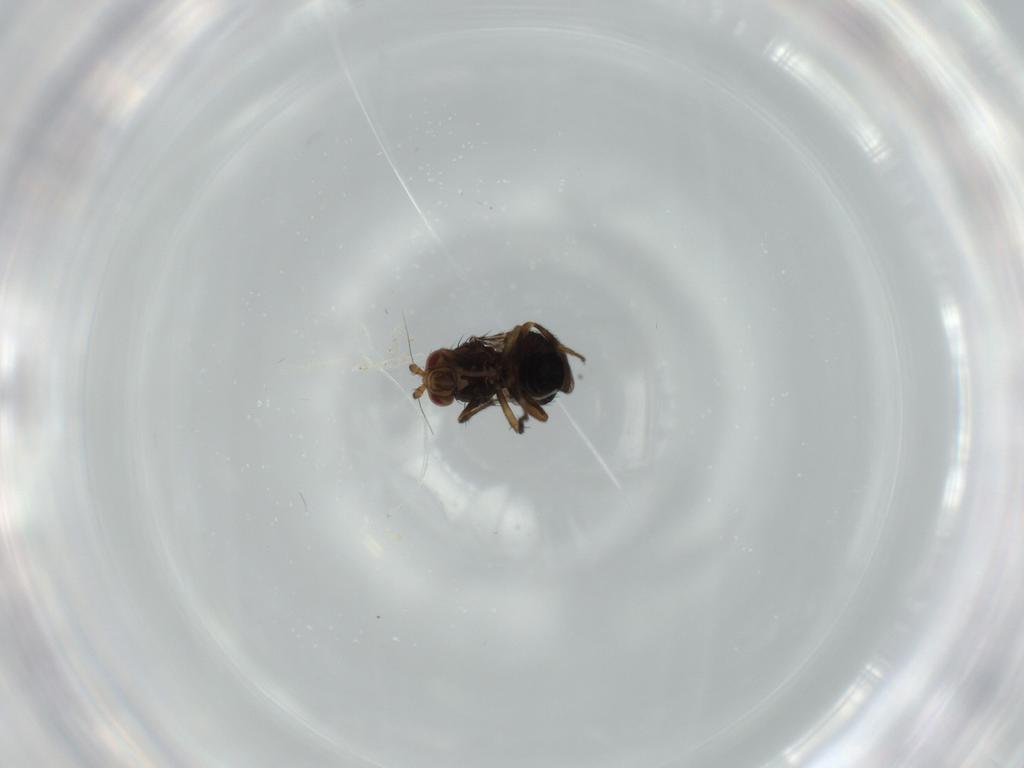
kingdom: Animalia
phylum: Arthropoda
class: Insecta
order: Diptera
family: Cecidomyiidae
